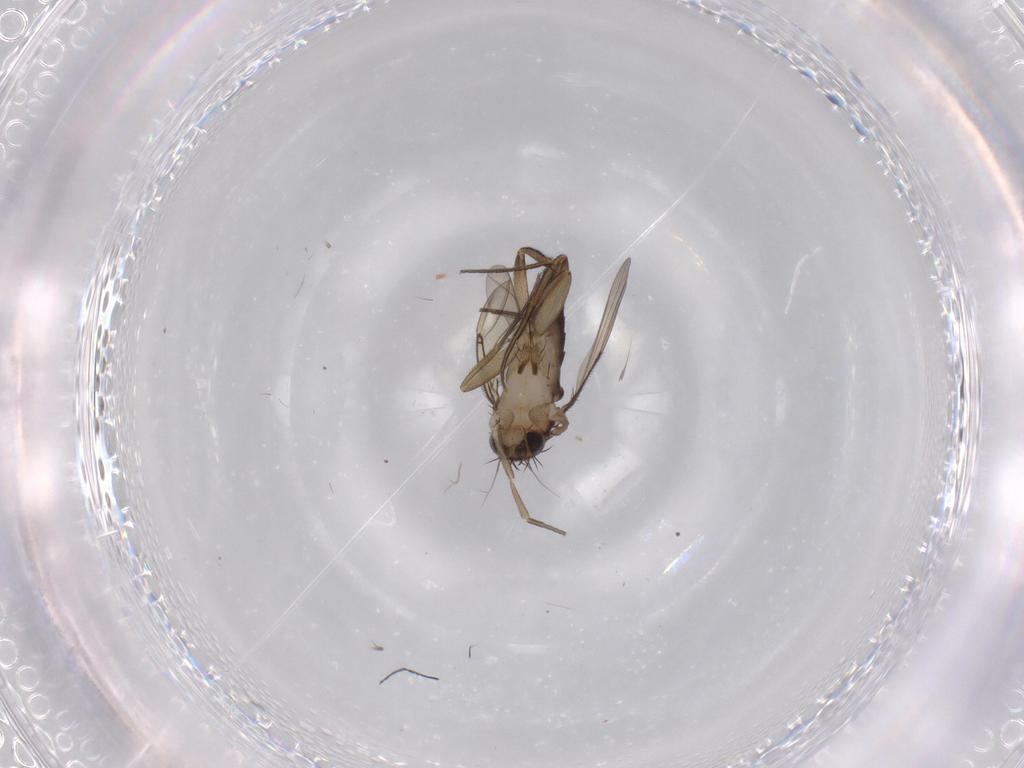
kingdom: Animalia
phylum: Arthropoda
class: Insecta
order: Diptera
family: Phoridae
